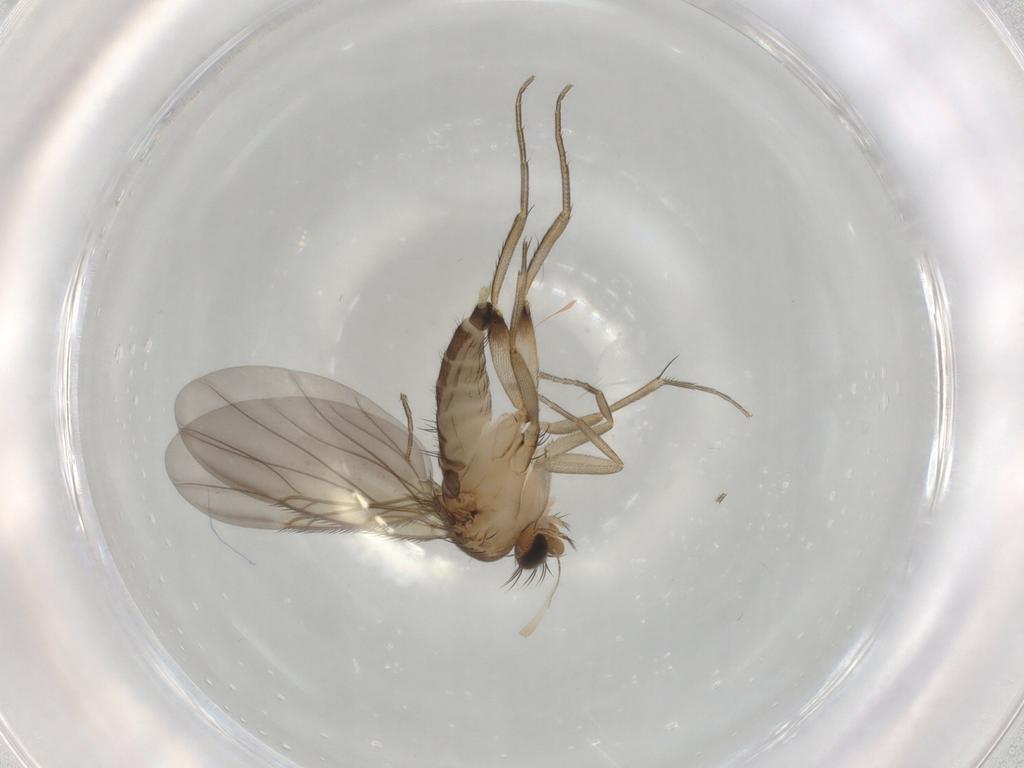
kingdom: Animalia
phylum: Arthropoda
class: Insecta
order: Diptera
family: Phoridae
